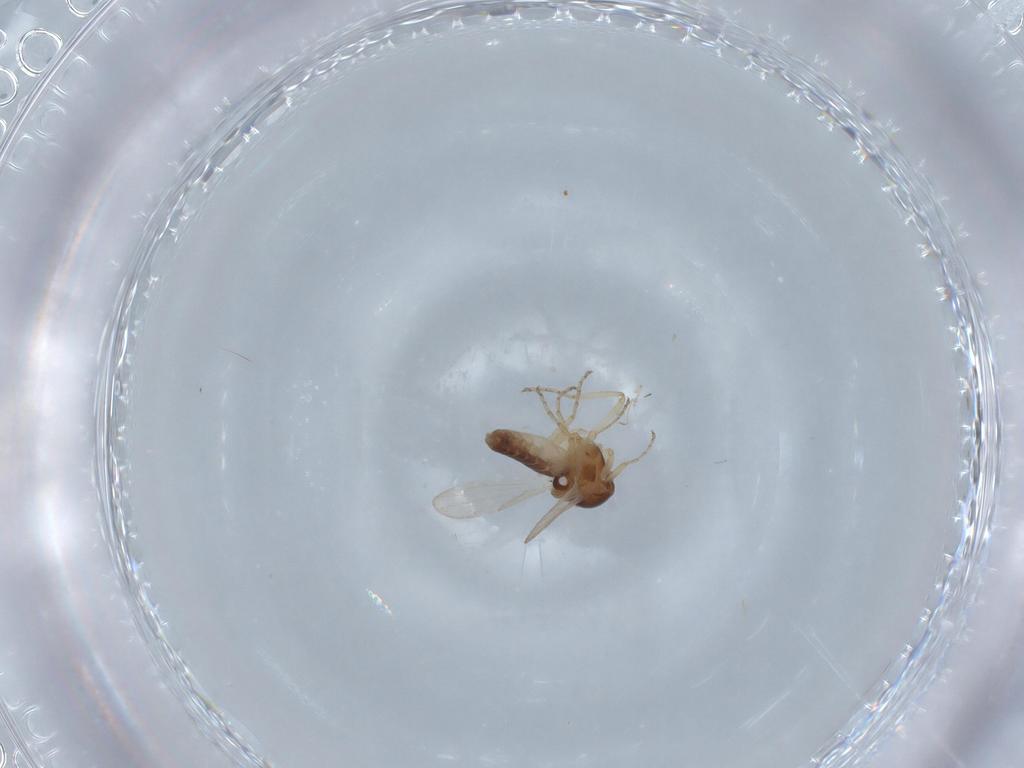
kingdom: Animalia
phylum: Arthropoda
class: Insecta
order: Diptera
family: Ceratopogonidae
